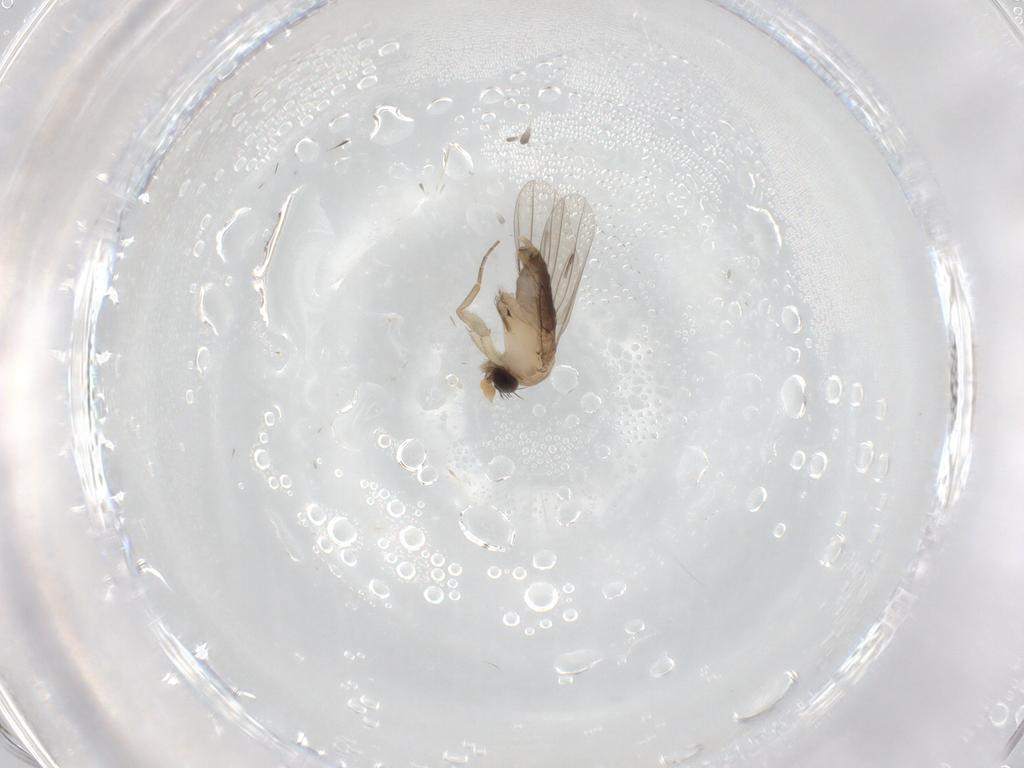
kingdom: Animalia
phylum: Arthropoda
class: Insecta
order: Diptera
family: Phoridae
